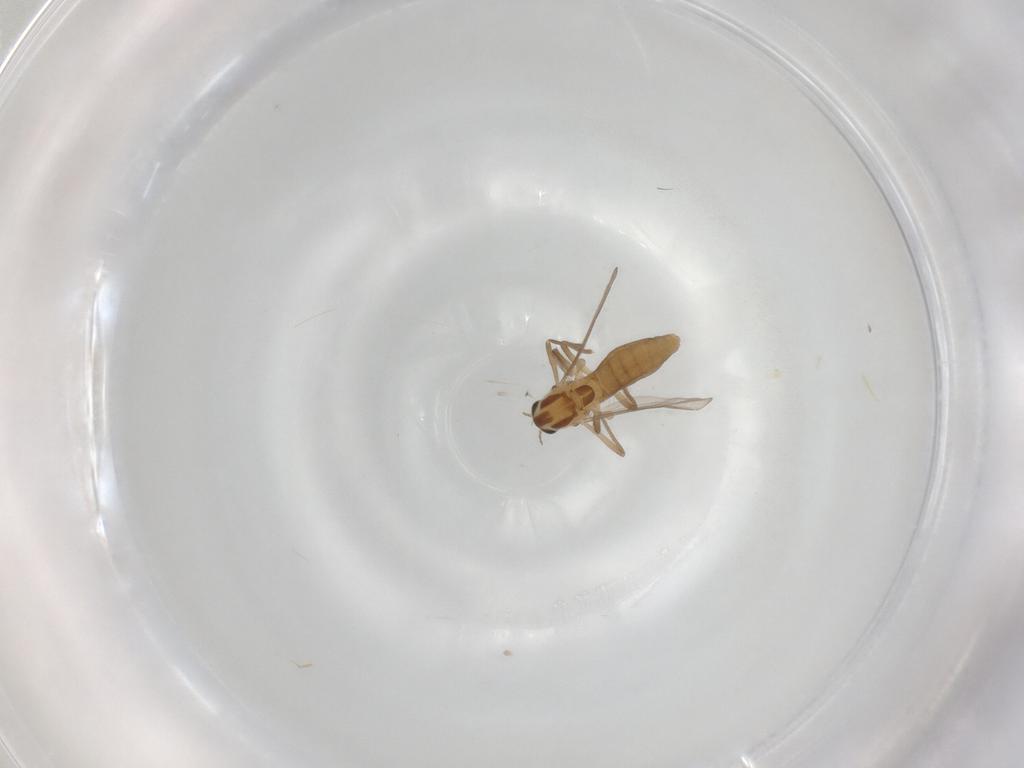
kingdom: Animalia
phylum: Arthropoda
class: Insecta
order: Diptera
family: Chironomidae
